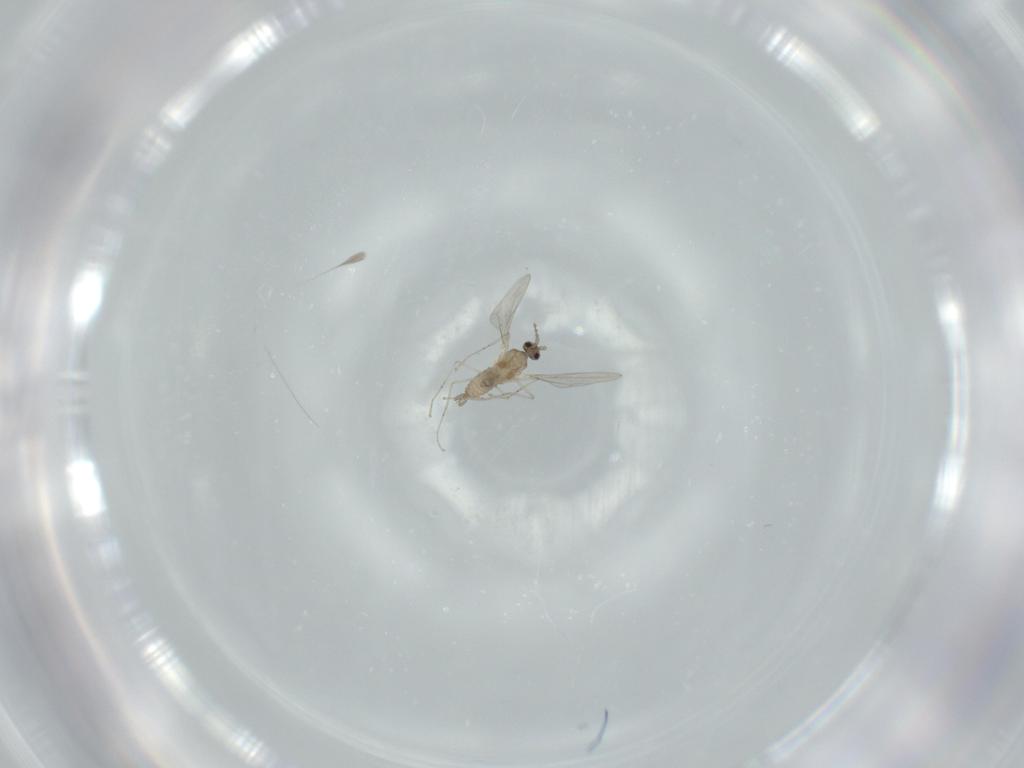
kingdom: Animalia
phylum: Arthropoda
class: Insecta
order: Diptera
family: Cecidomyiidae
